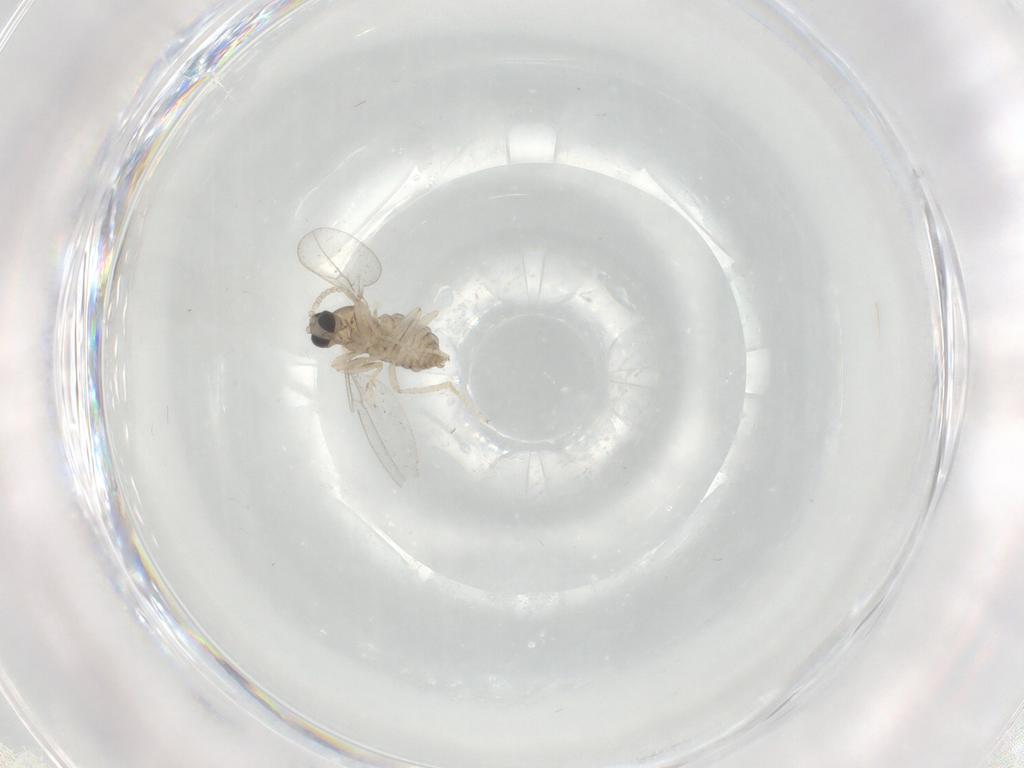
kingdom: Animalia
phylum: Arthropoda
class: Insecta
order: Diptera
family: Cecidomyiidae
